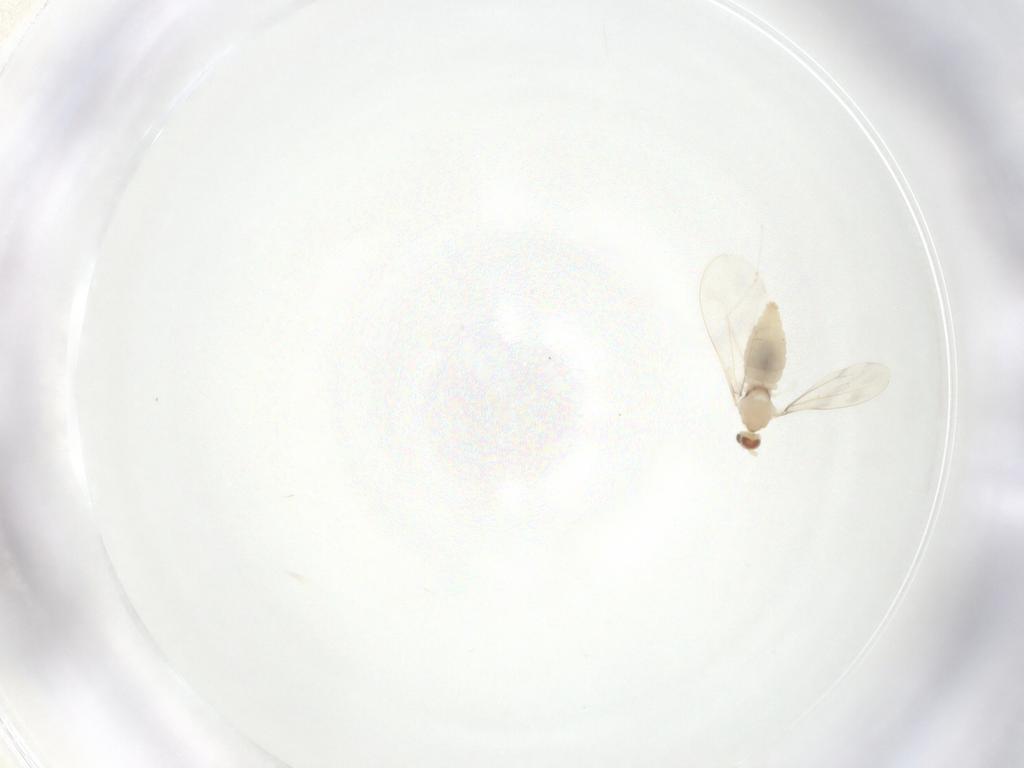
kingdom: Animalia
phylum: Arthropoda
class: Insecta
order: Diptera
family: Cecidomyiidae
